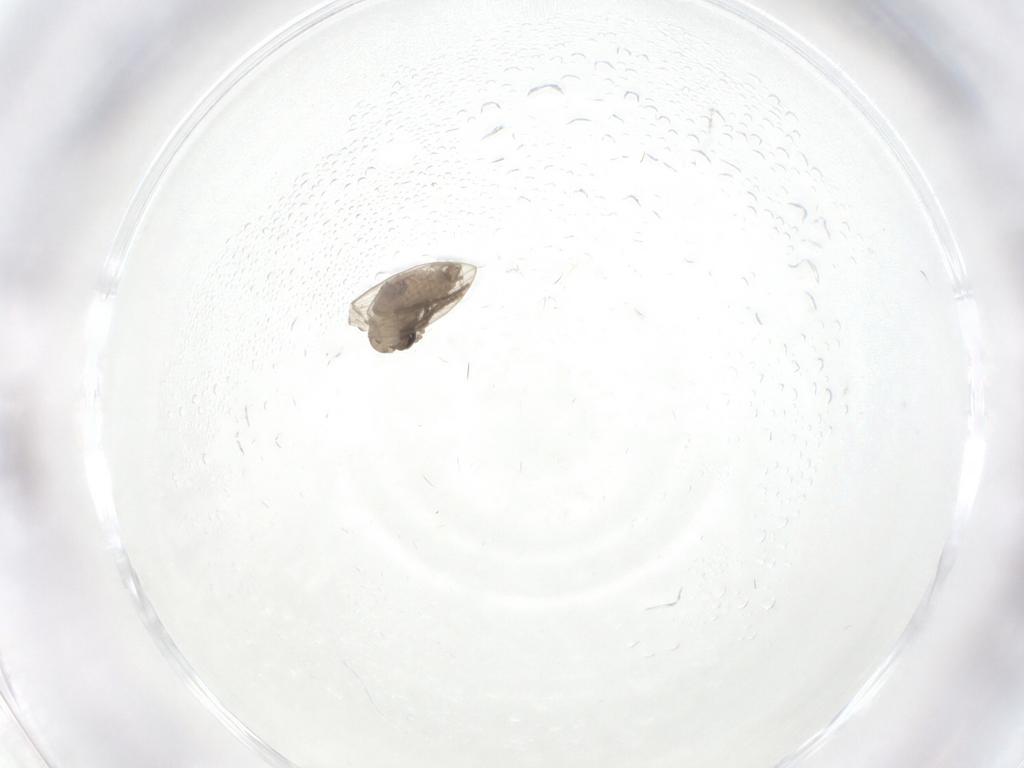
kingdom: Animalia
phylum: Arthropoda
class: Insecta
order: Diptera
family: Psychodidae
